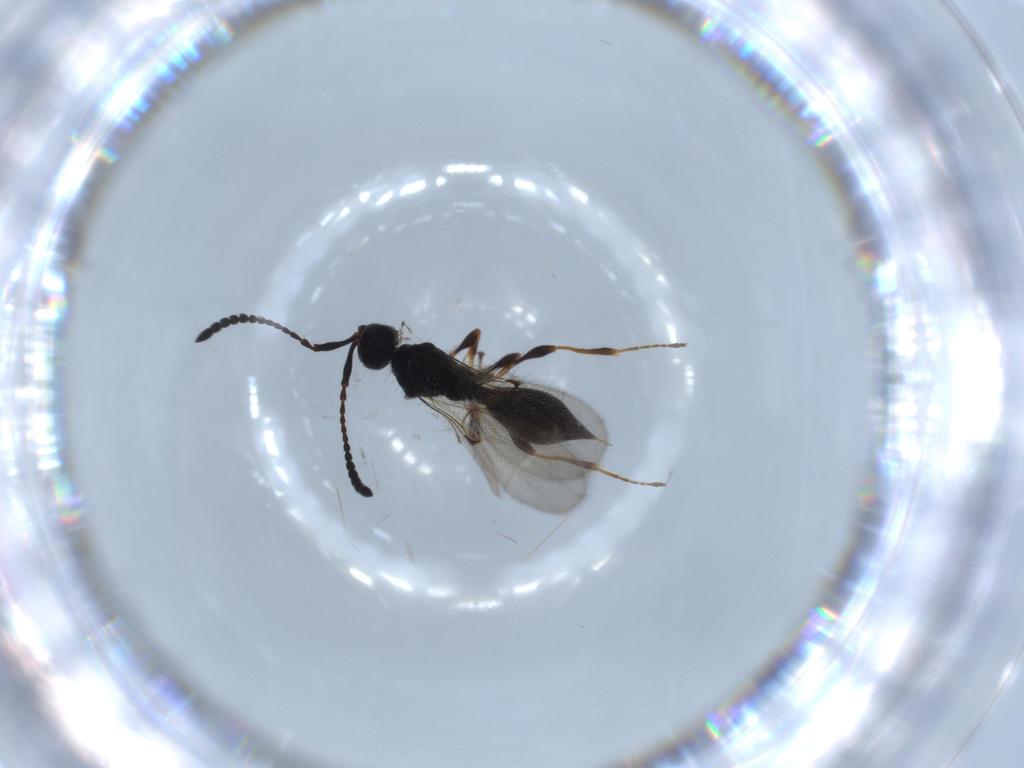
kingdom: Animalia
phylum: Arthropoda
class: Insecta
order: Hymenoptera
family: Diapriidae
